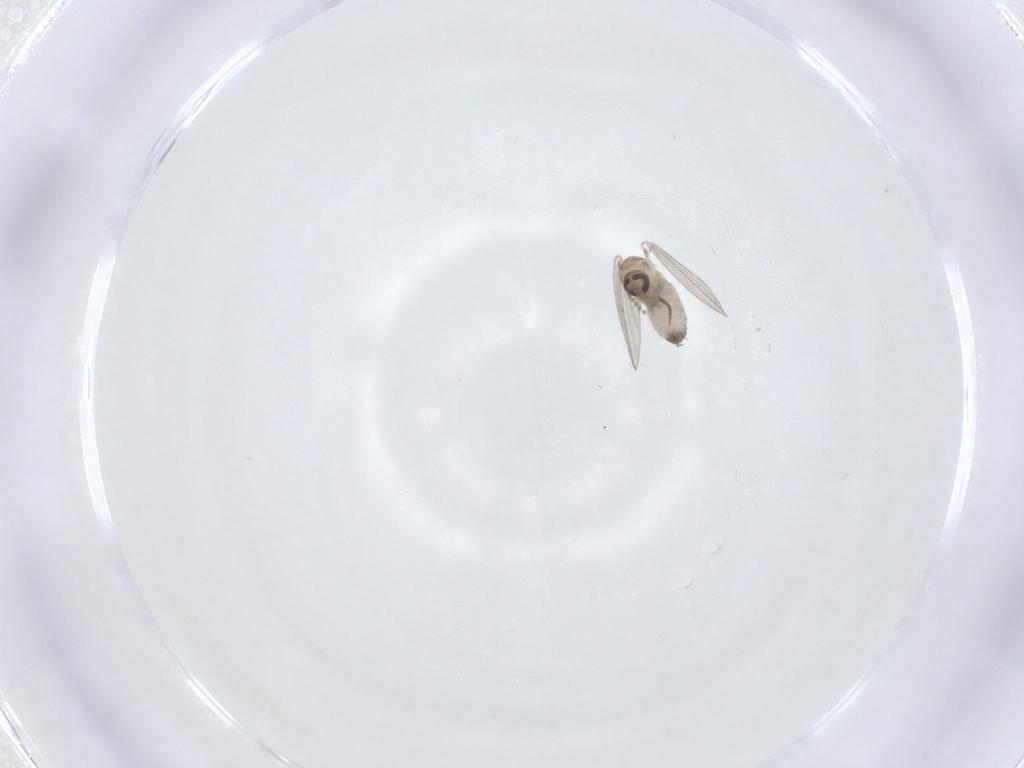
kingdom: Animalia
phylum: Arthropoda
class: Insecta
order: Diptera
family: Psychodidae
